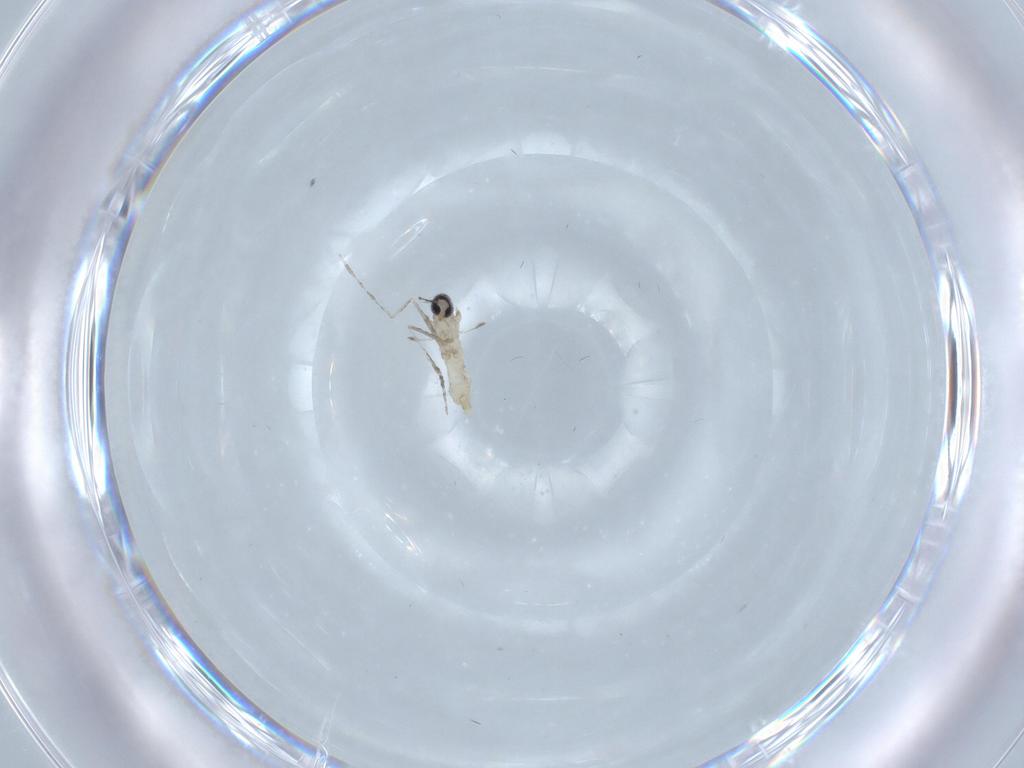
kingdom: Animalia
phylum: Arthropoda
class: Insecta
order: Diptera
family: Cecidomyiidae
